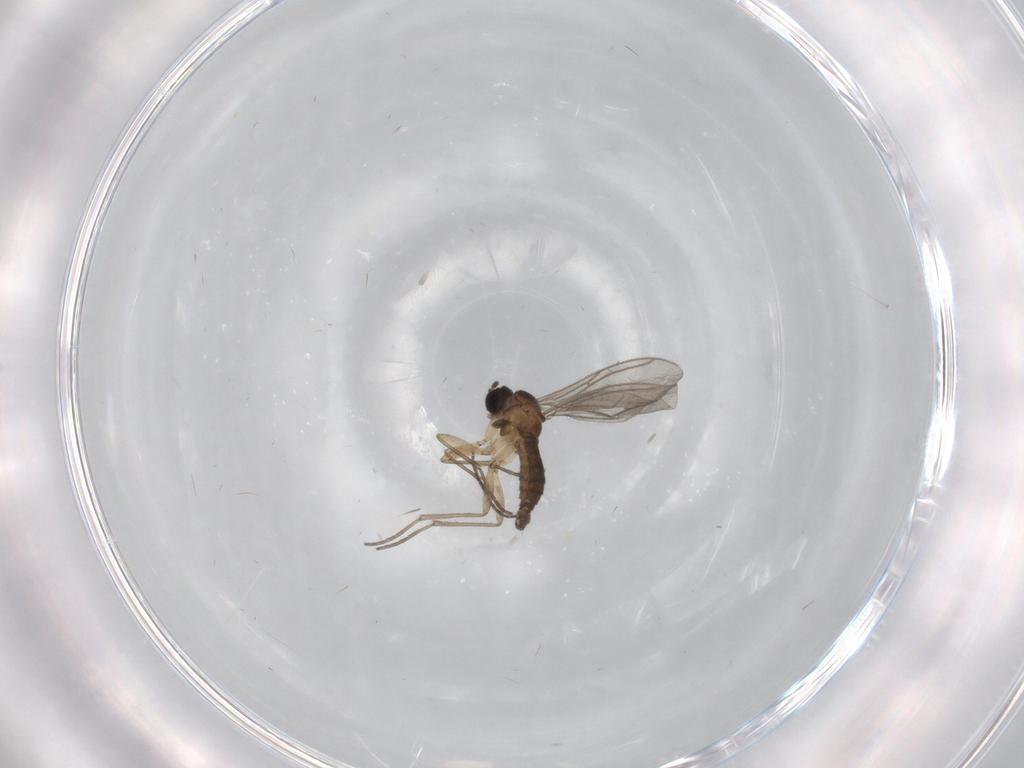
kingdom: Animalia
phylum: Arthropoda
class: Insecta
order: Diptera
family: Sciaridae
